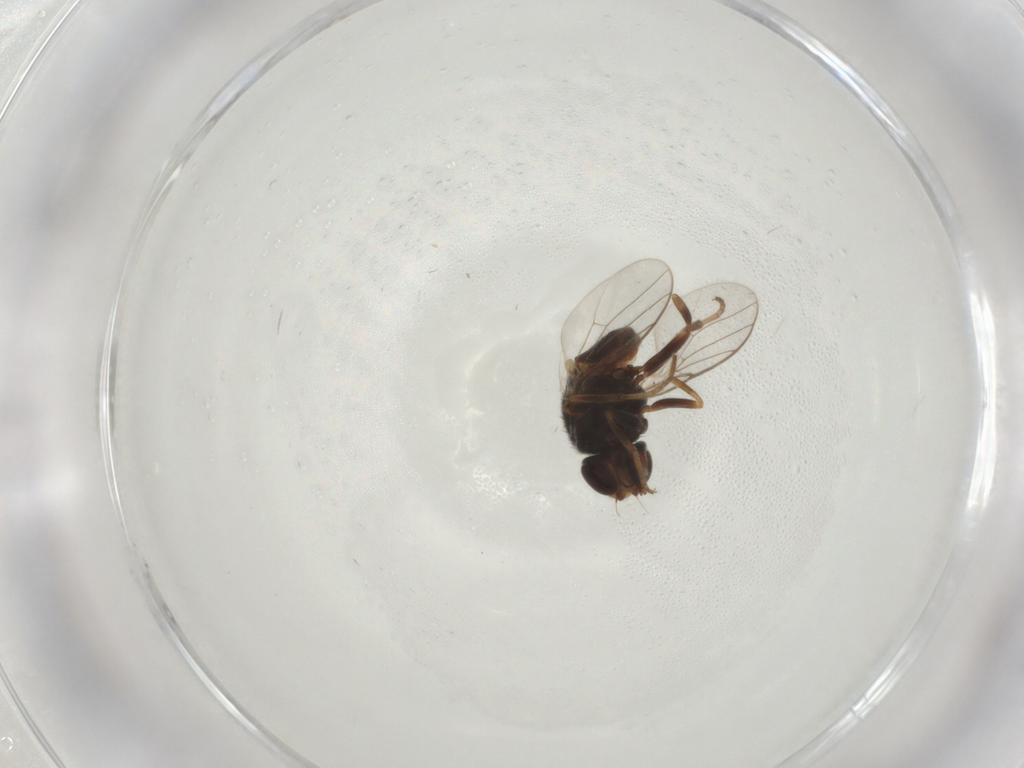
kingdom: Animalia
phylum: Arthropoda
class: Insecta
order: Diptera
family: Chloropidae
